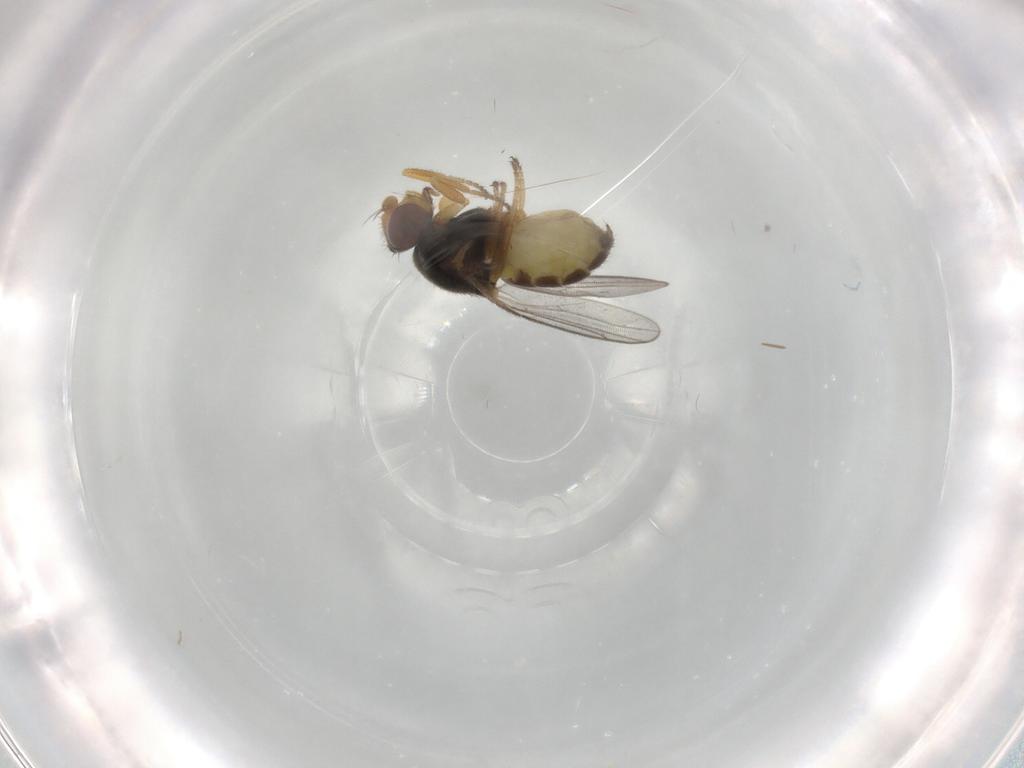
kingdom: Animalia
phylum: Arthropoda
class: Insecta
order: Diptera
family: Chloropidae
